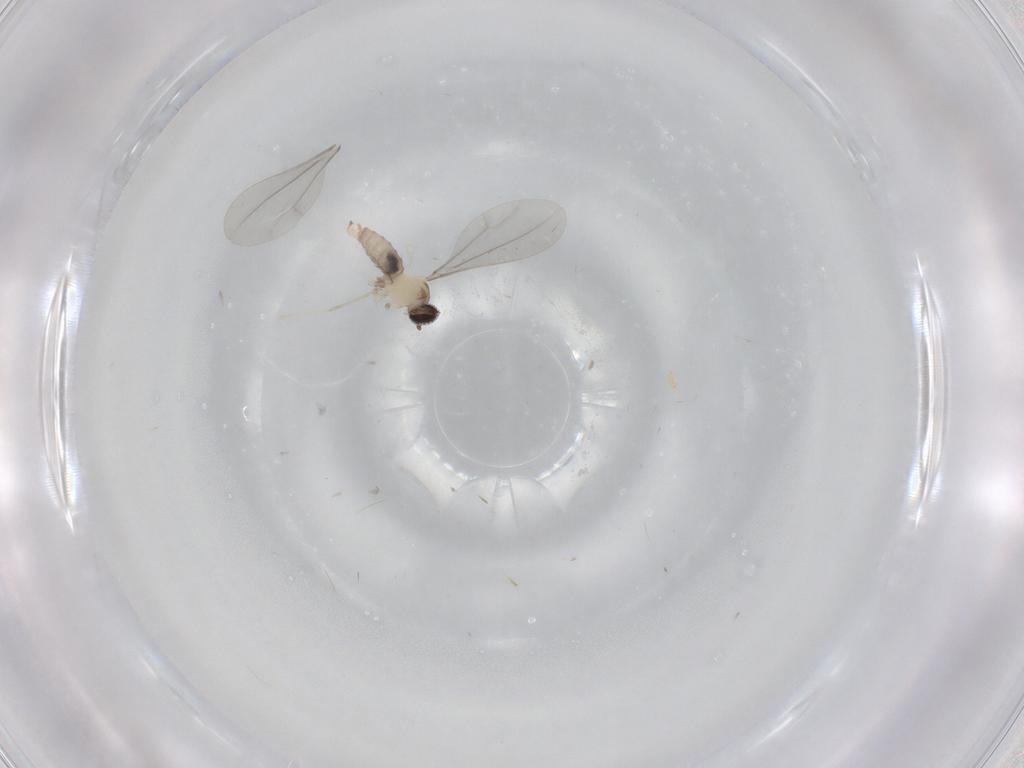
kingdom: Animalia
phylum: Arthropoda
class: Insecta
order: Diptera
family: Cecidomyiidae
